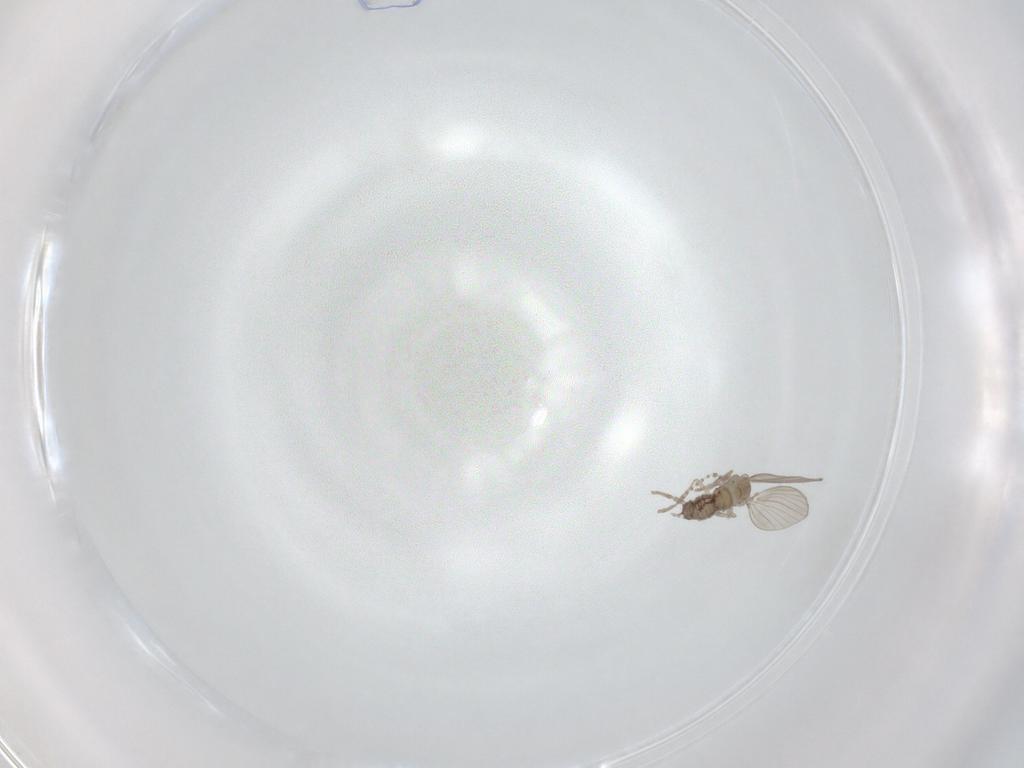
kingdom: Animalia
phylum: Arthropoda
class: Insecta
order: Diptera
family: Psychodidae
